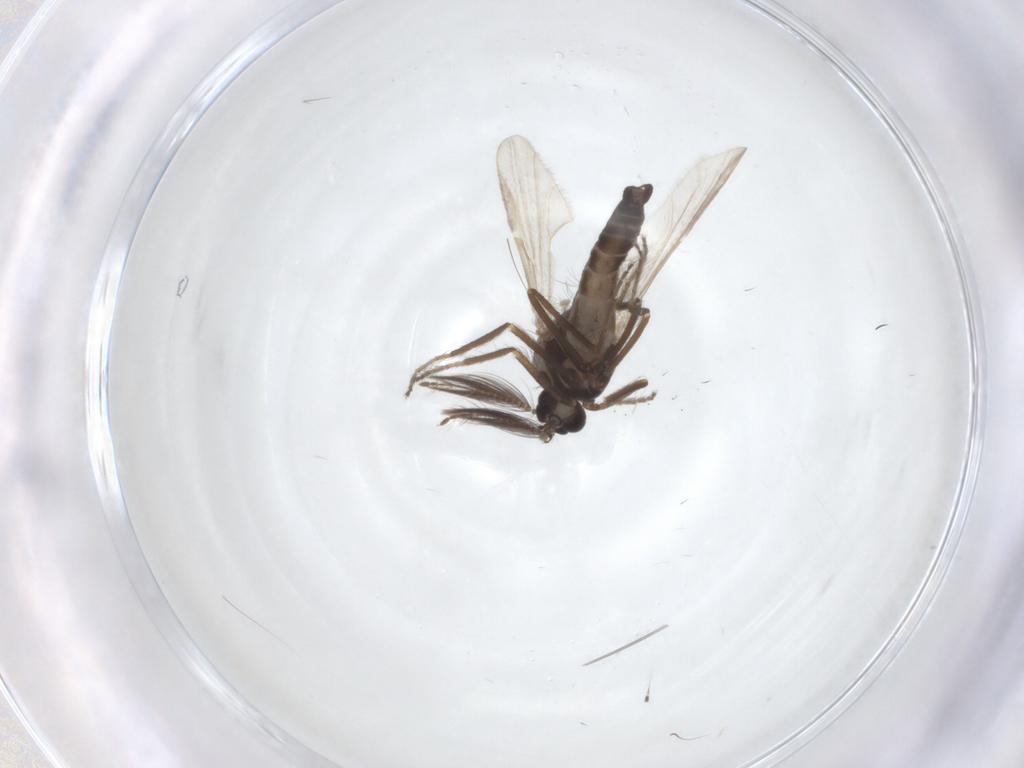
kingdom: Animalia
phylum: Arthropoda
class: Insecta
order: Diptera
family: Ceratopogonidae
